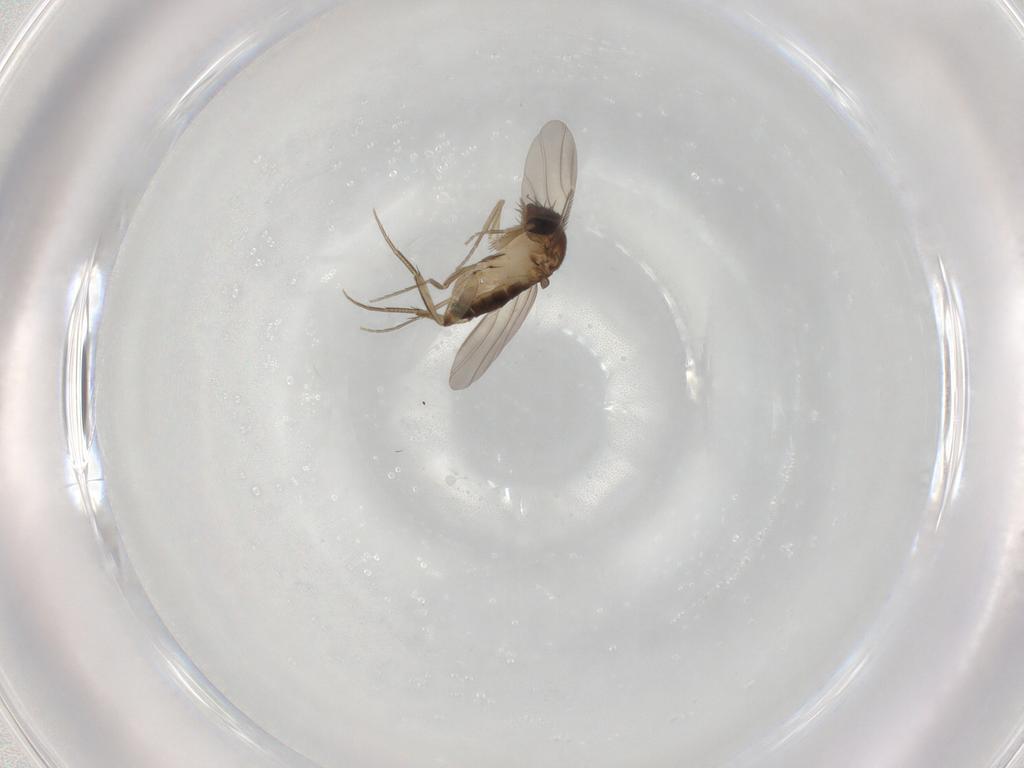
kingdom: Animalia
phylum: Arthropoda
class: Insecta
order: Diptera
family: Phoridae
